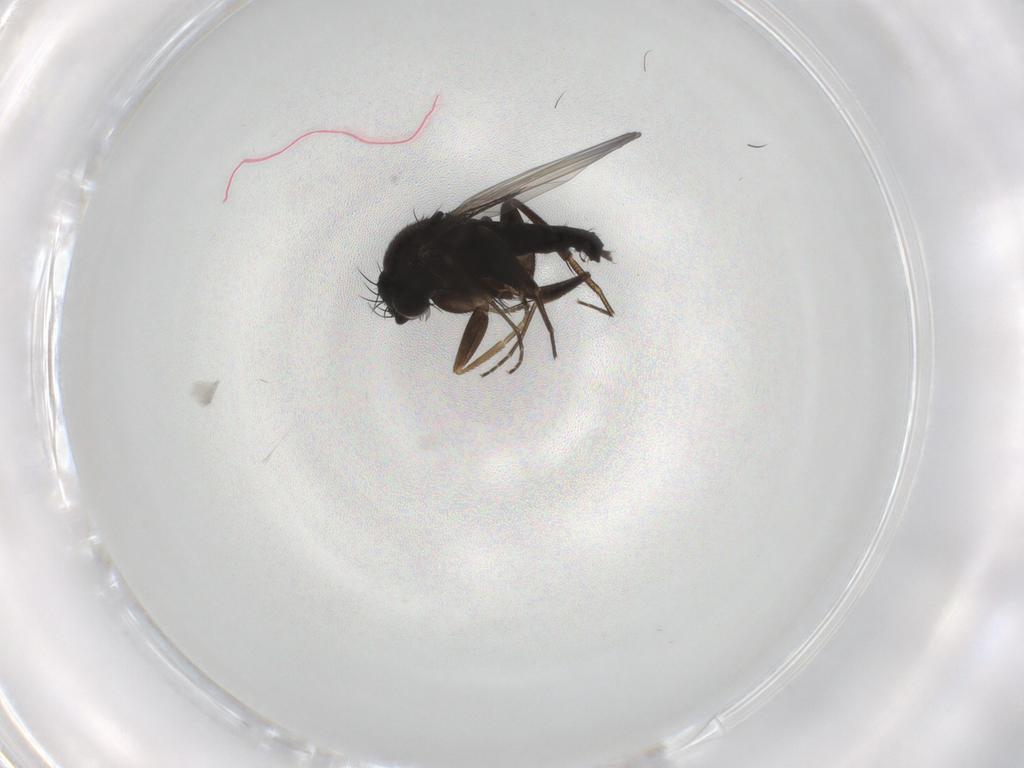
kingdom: Animalia
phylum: Arthropoda
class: Insecta
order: Diptera
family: Phoridae
